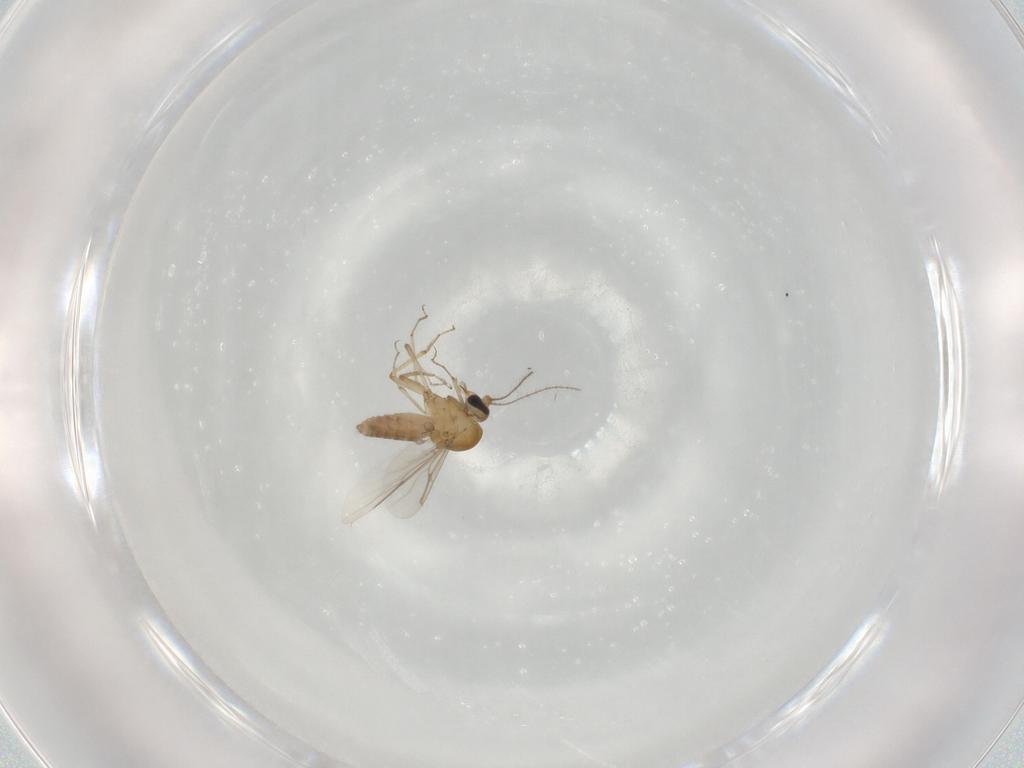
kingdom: Animalia
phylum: Arthropoda
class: Insecta
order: Diptera
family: Ceratopogonidae
